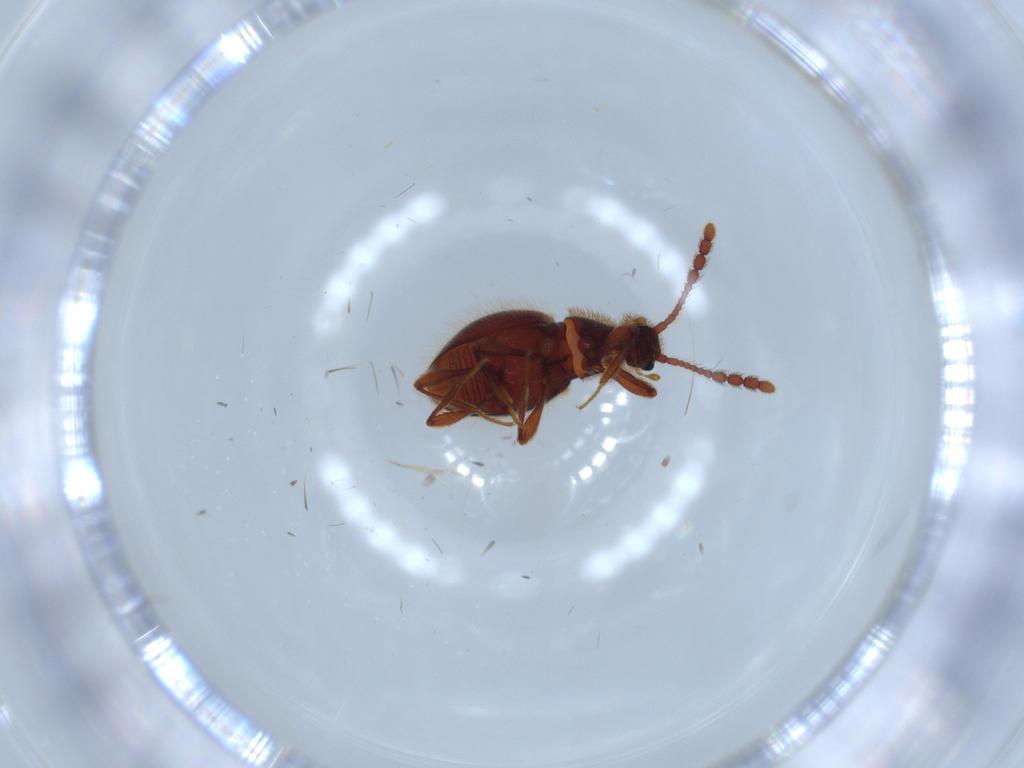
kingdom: Animalia
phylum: Arthropoda
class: Insecta
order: Coleoptera
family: Staphylinidae
